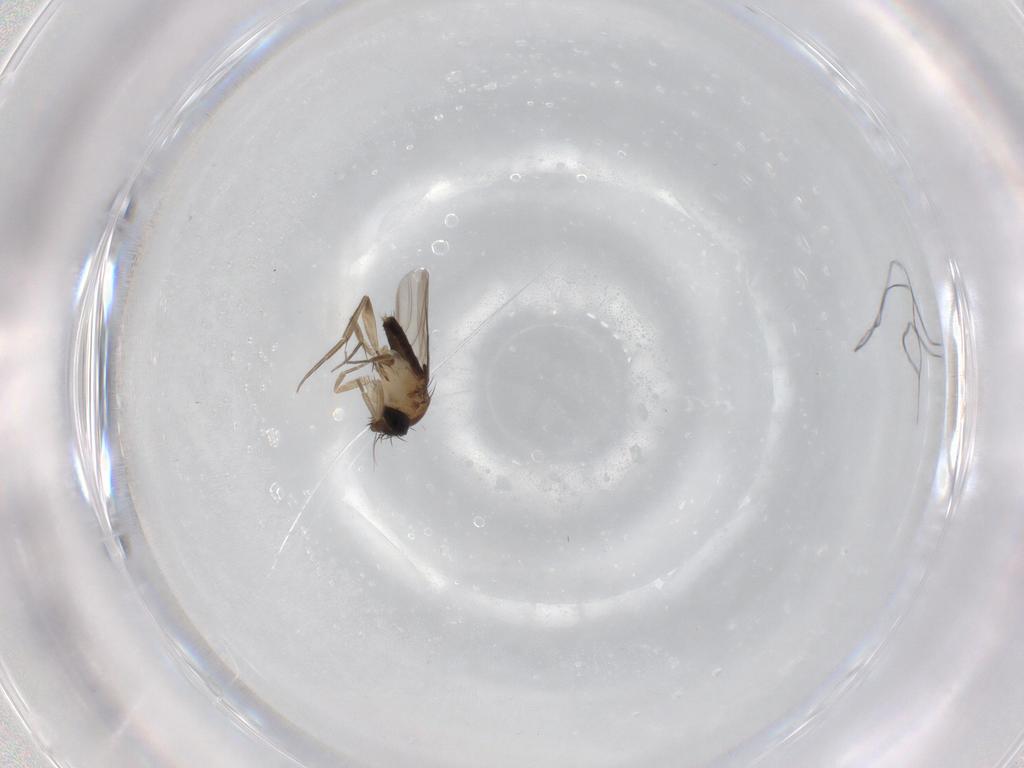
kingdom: Animalia
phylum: Arthropoda
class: Insecta
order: Diptera
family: Phoridae
